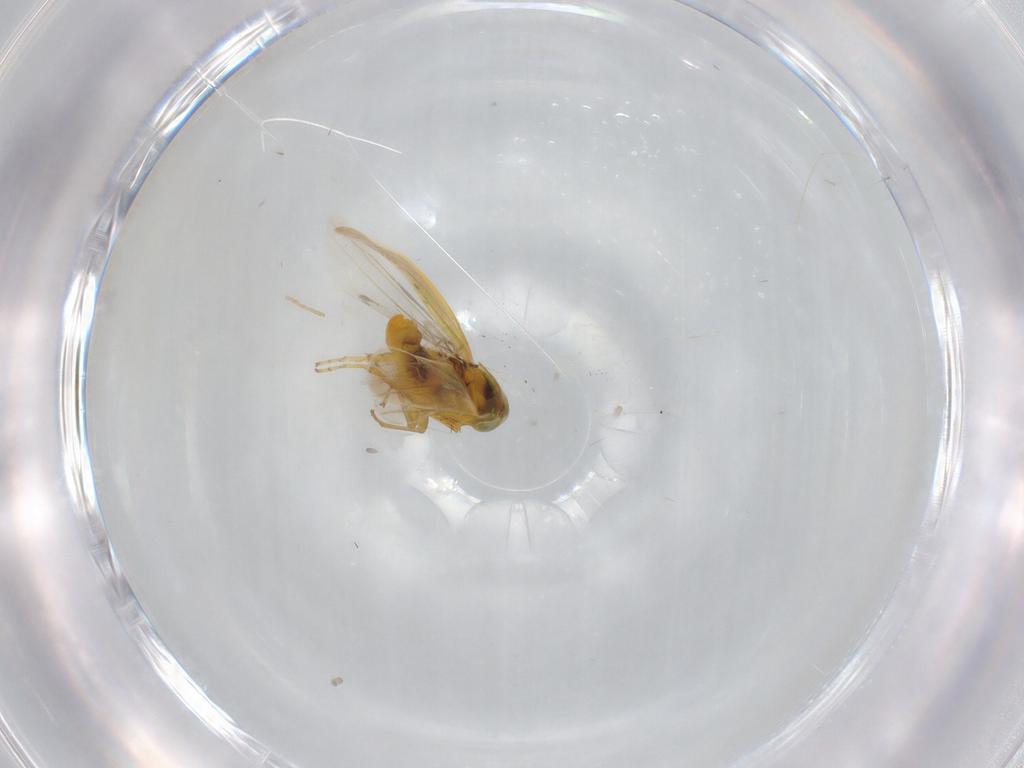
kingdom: Animalia
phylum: Arthropoda
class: Insecta
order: Hemiptera
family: Cicadellidae
